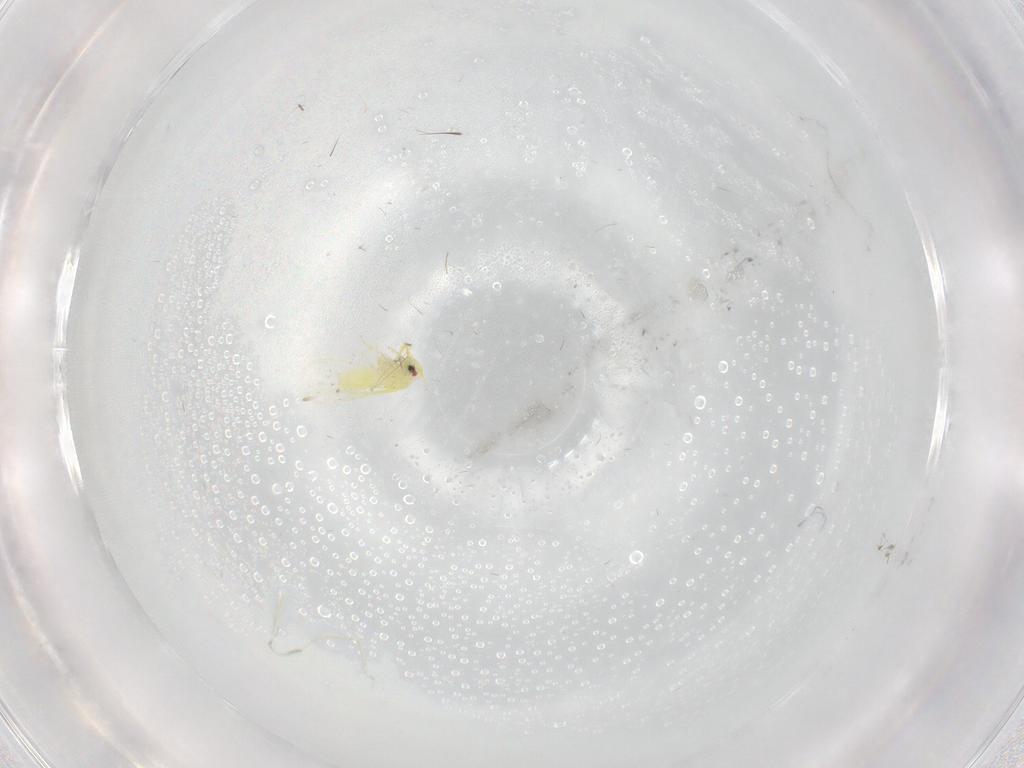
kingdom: Animalia
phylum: Arthropoda
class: Insecta
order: Hemiptera
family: Aleyrodidae
